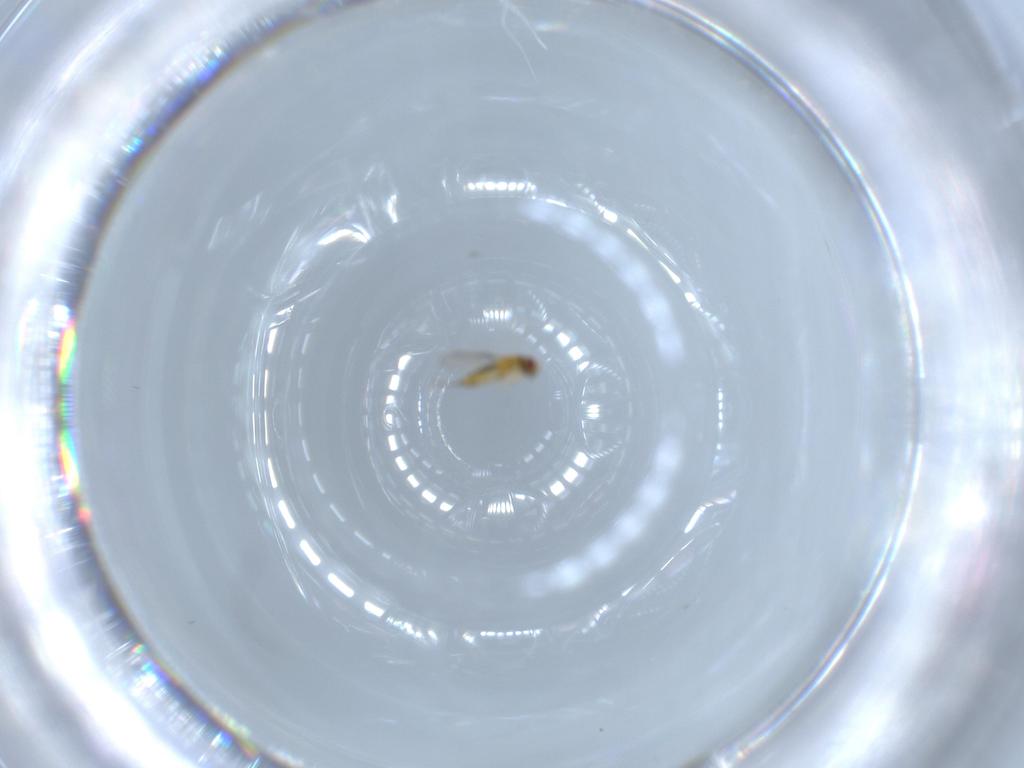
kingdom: Animalia
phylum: Arthropoda
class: Insecta
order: Hymenoptera
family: Trichogrammatidae
